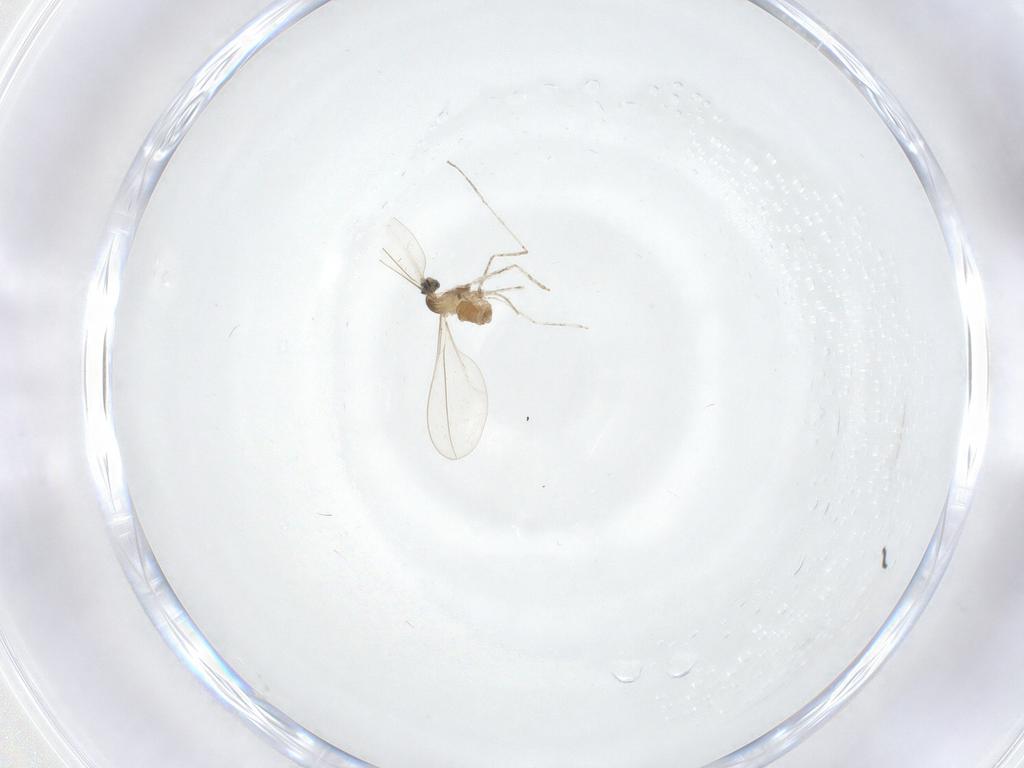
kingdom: Animalia
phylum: Arthropoda
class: Insecta
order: Diptera
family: Cecidomyiidae
